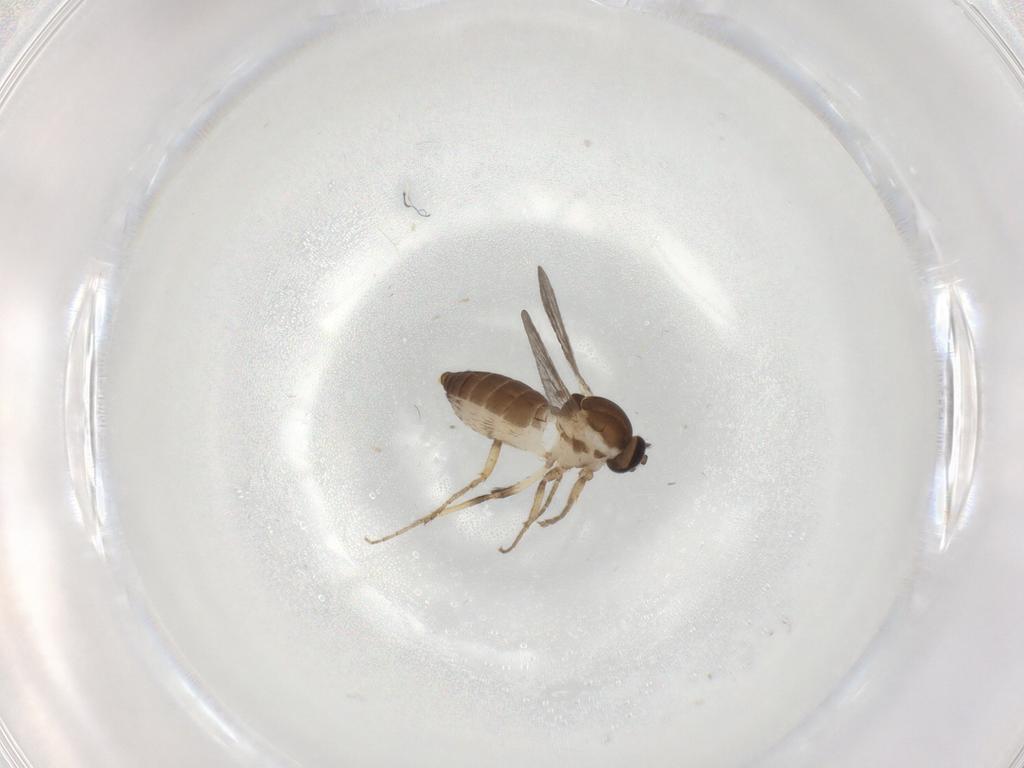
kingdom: Animalia
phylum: Arthropoda
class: Insecta
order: Diptera
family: Ceratopogonidae
